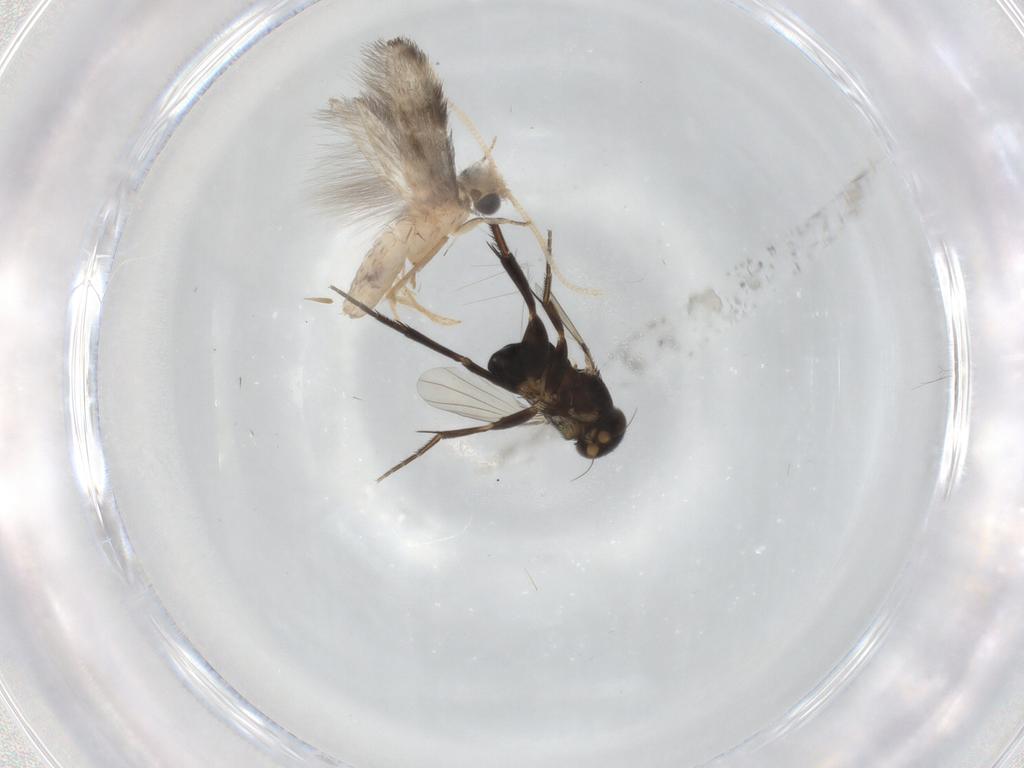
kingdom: Animalia
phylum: Arthropoda
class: Insecta
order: Diptera
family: Phoridae
